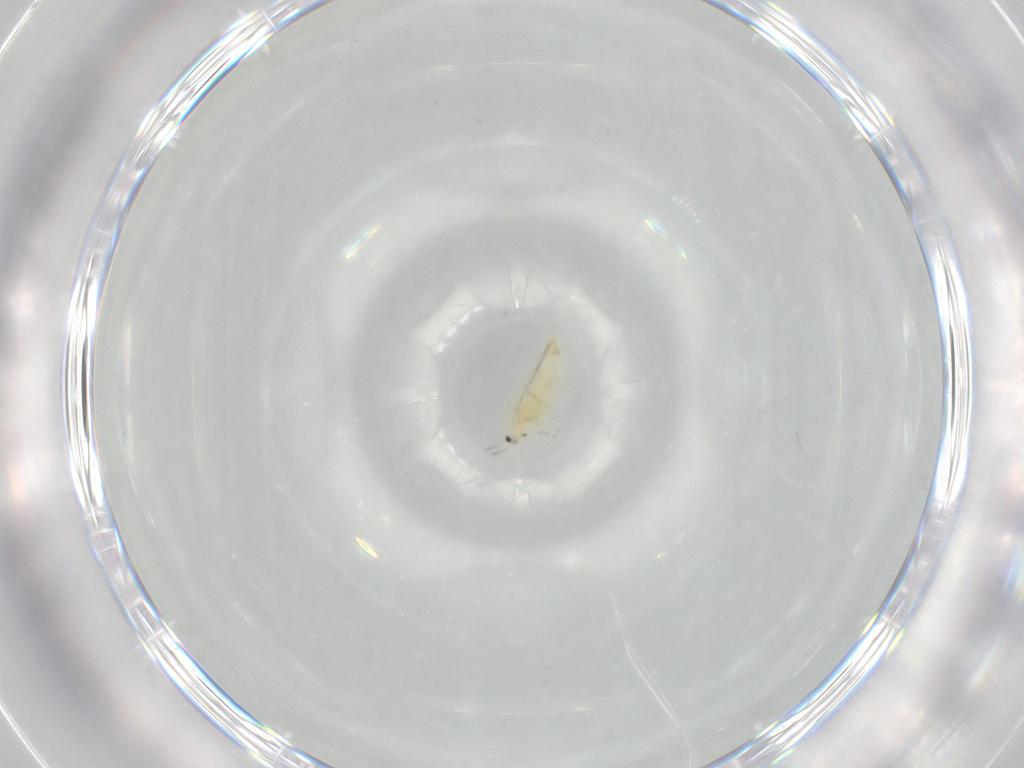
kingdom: Animalia
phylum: Arthropoda
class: Insecta
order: Thysanoptera
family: Thripidae
